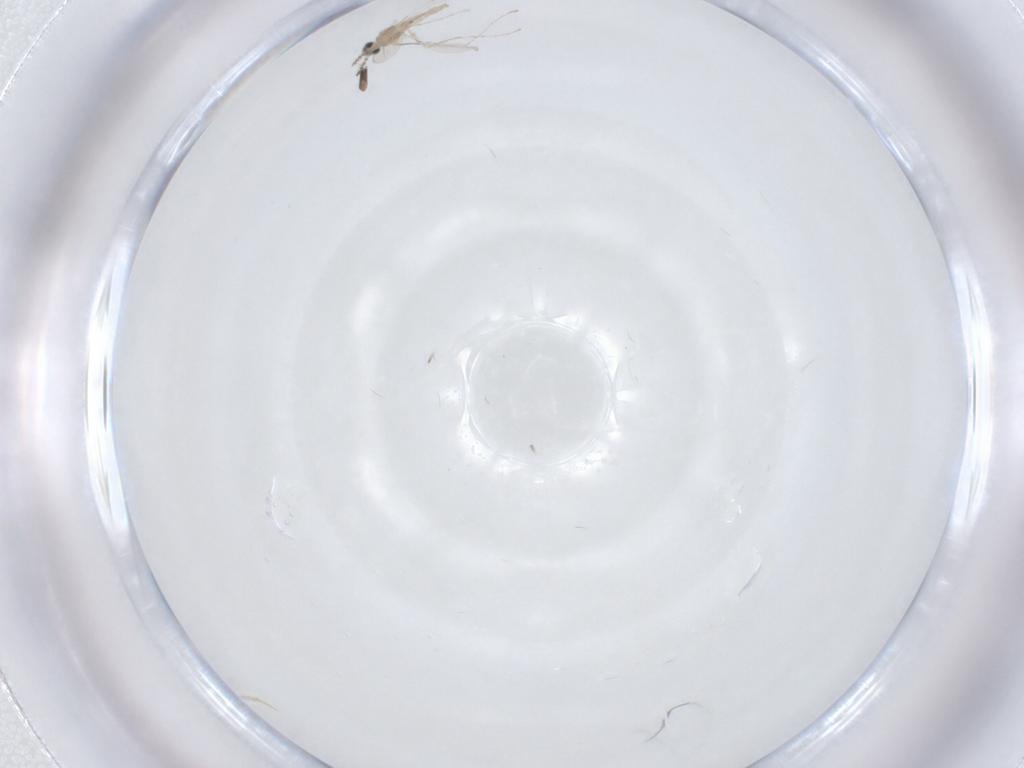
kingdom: Animalia
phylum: Arthropoda
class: Insecta
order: Diptera
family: Cecidomyiidae
